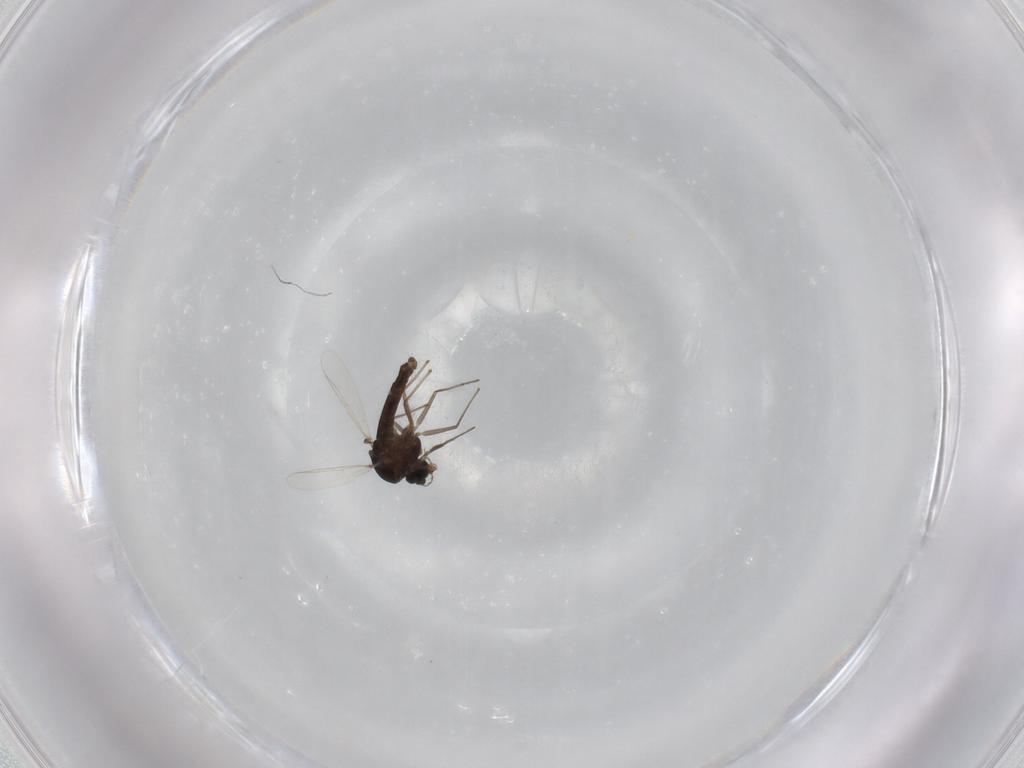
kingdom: Animalia
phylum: Arthropoda
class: Insecta
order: Diptera
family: Chironomidae
